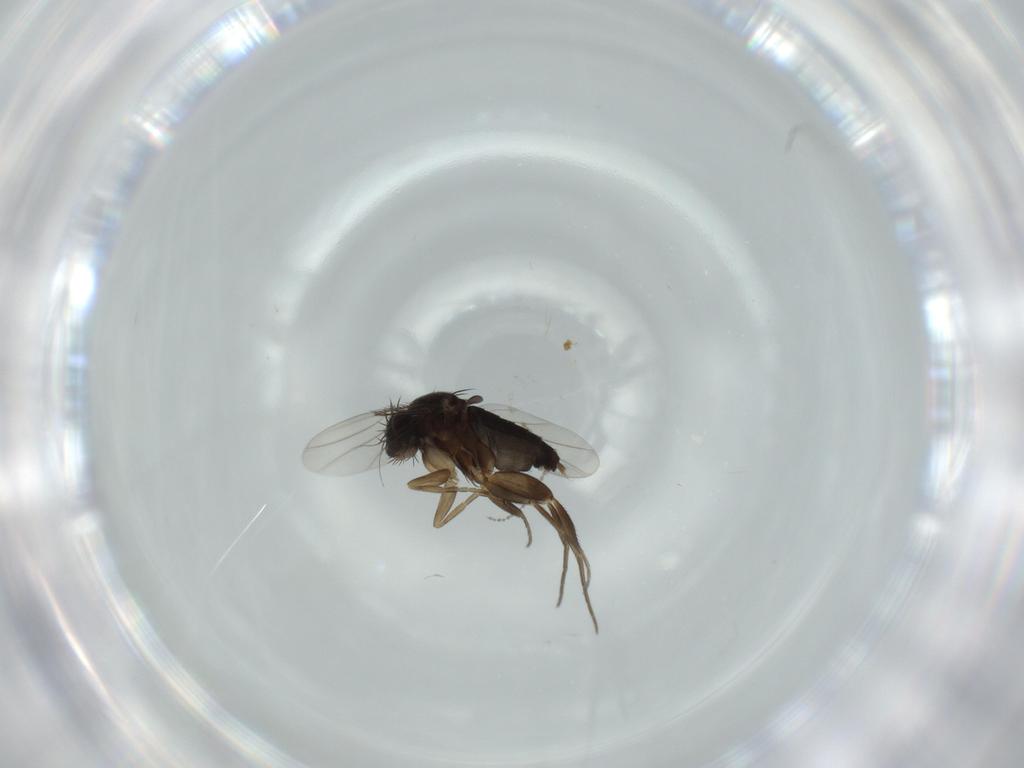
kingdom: Animalia
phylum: Arthropoda
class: Insecta
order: Diptera
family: Phoridae
